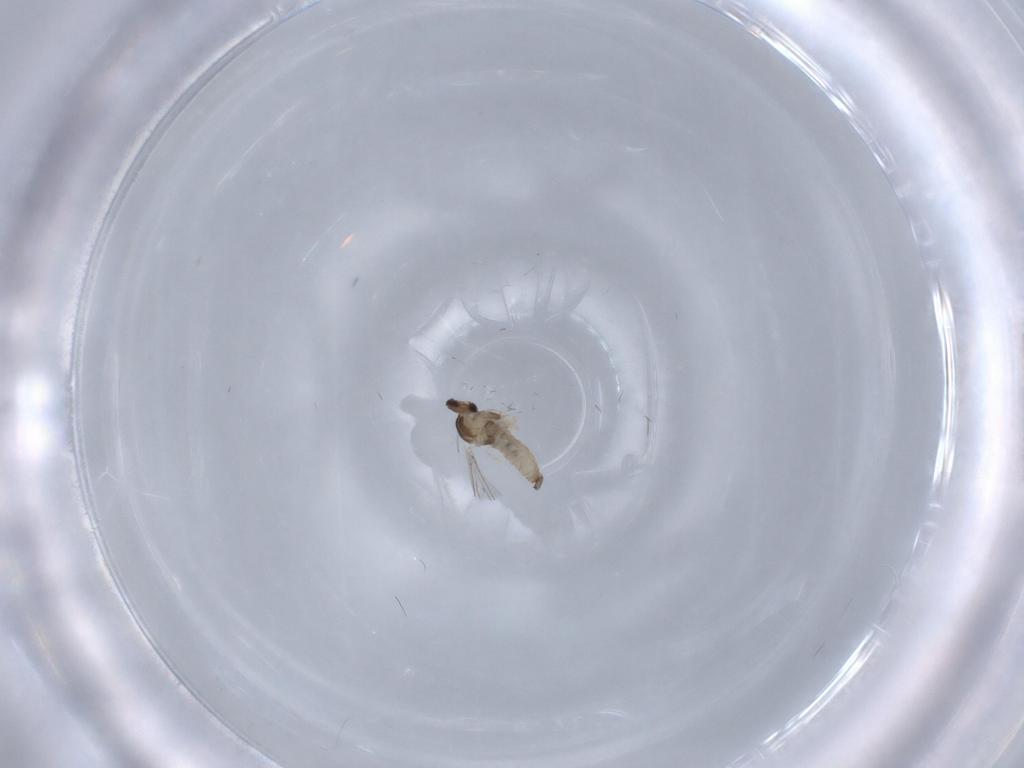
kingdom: Animalia
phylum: Arthropoda
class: Insecta
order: Diptera
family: Cecidomyiidae
